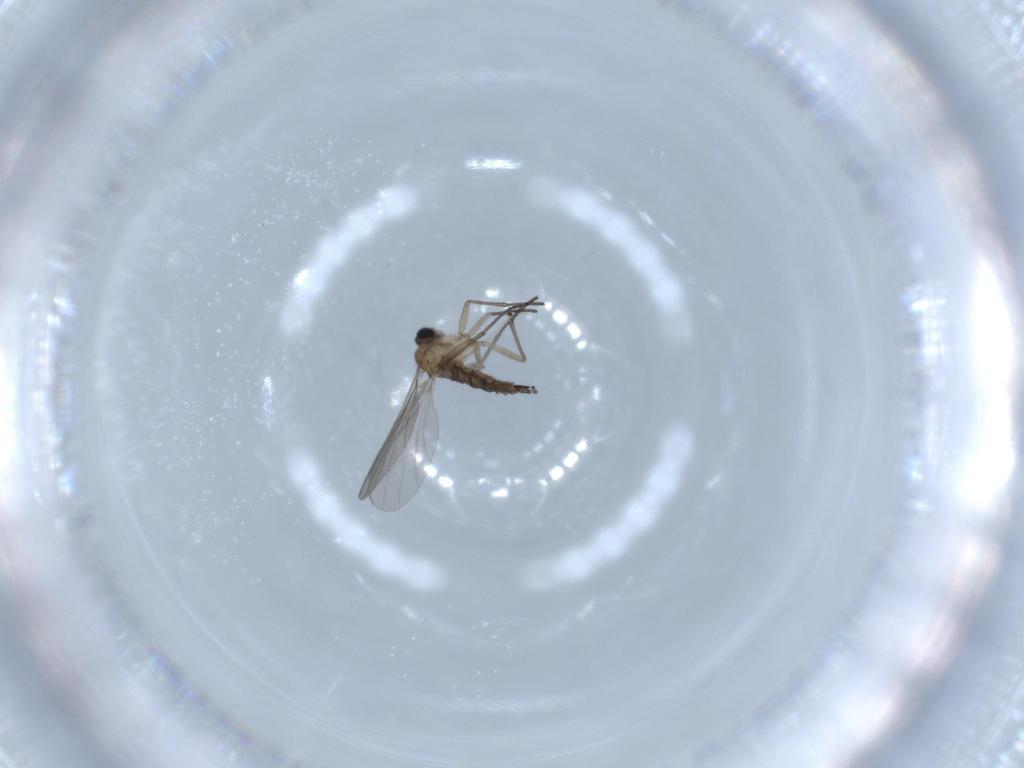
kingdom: Animalia
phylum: Arthropoda
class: Insecta
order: Diptera
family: Sciaridae
